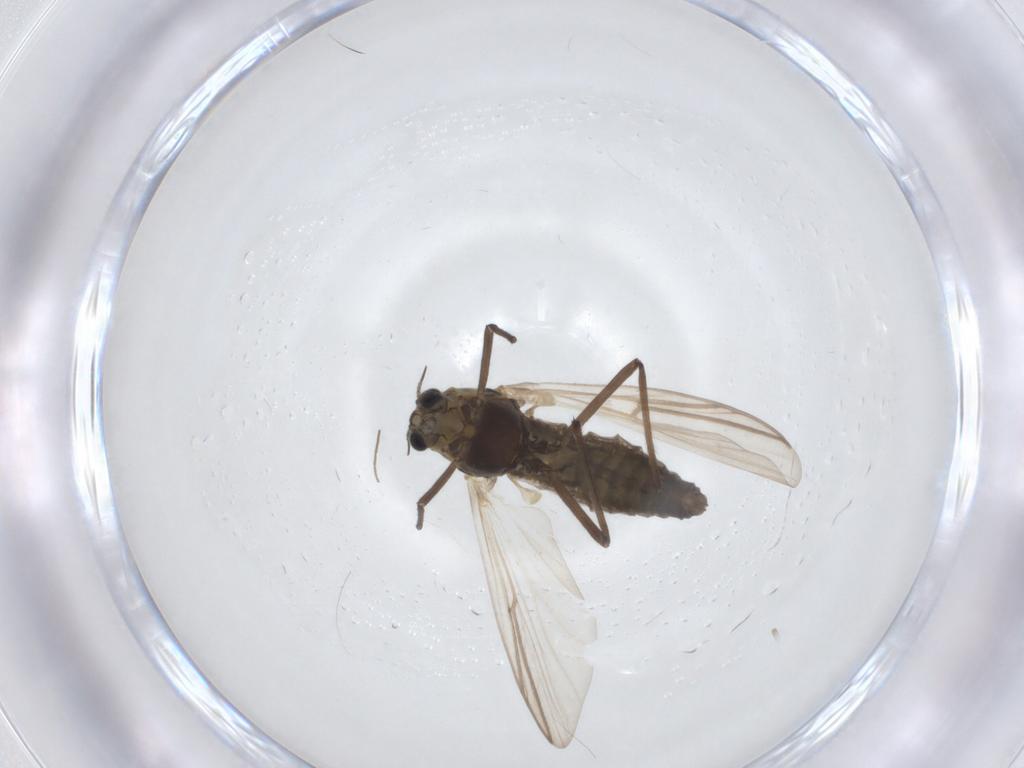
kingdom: Animalia
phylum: Arthropoda
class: Insecta
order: Diptera
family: Chironomidae
